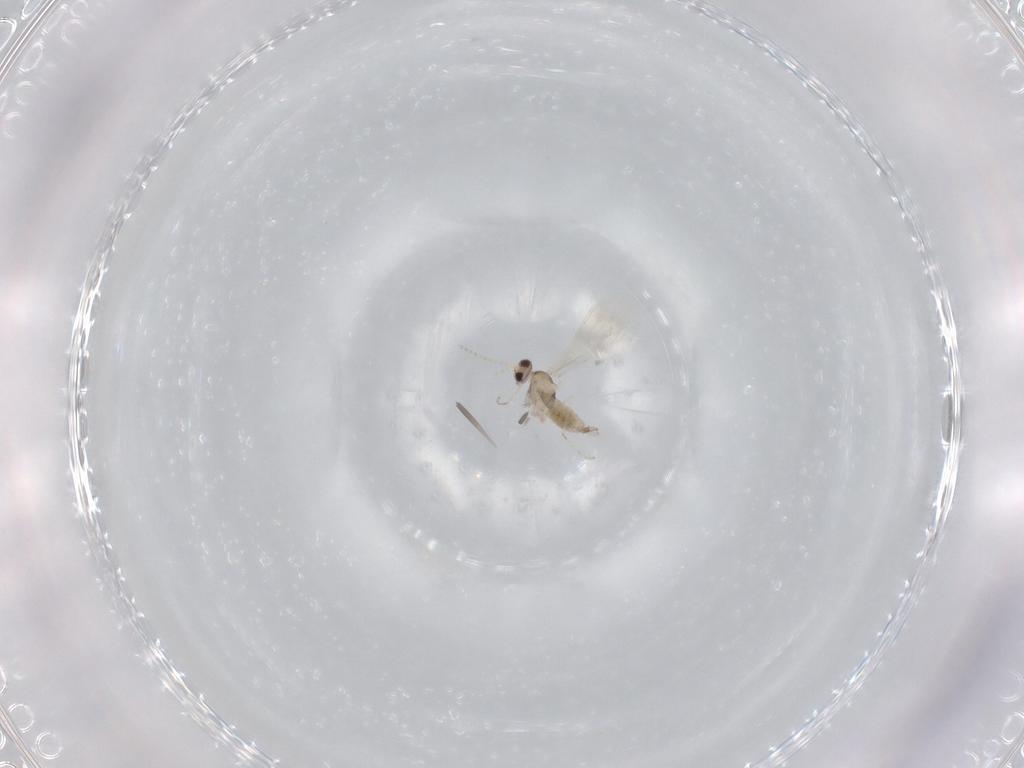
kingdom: Animalia
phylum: Arthropoda
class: Insecta
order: Diptera
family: Cecidomyiidae
